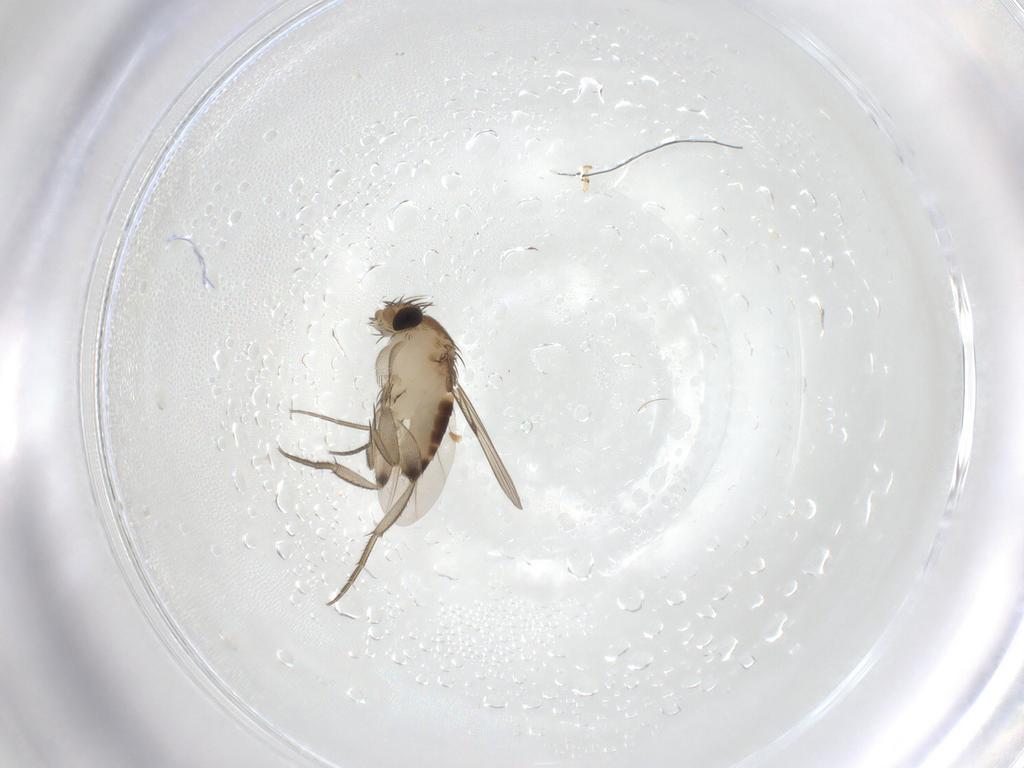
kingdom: Animalia
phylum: Arthropoda
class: Insecta
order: Diptera
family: Phoridae
